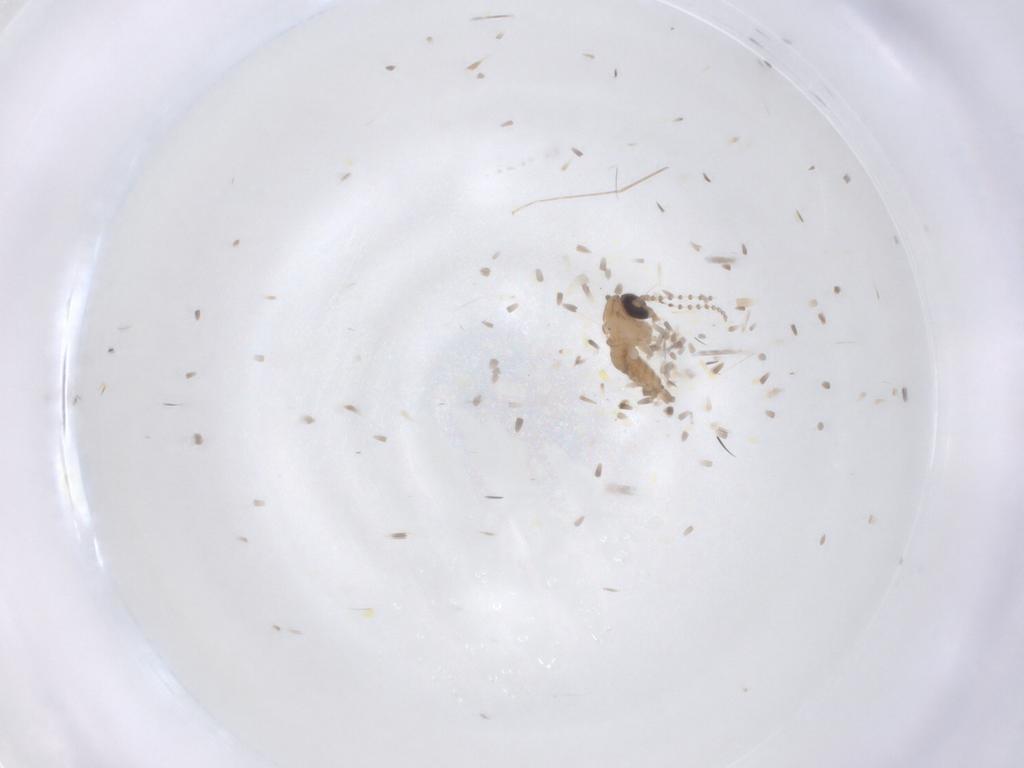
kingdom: Animalia
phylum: Arthropoda
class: Insecta
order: Diptera
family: Psychodidae
